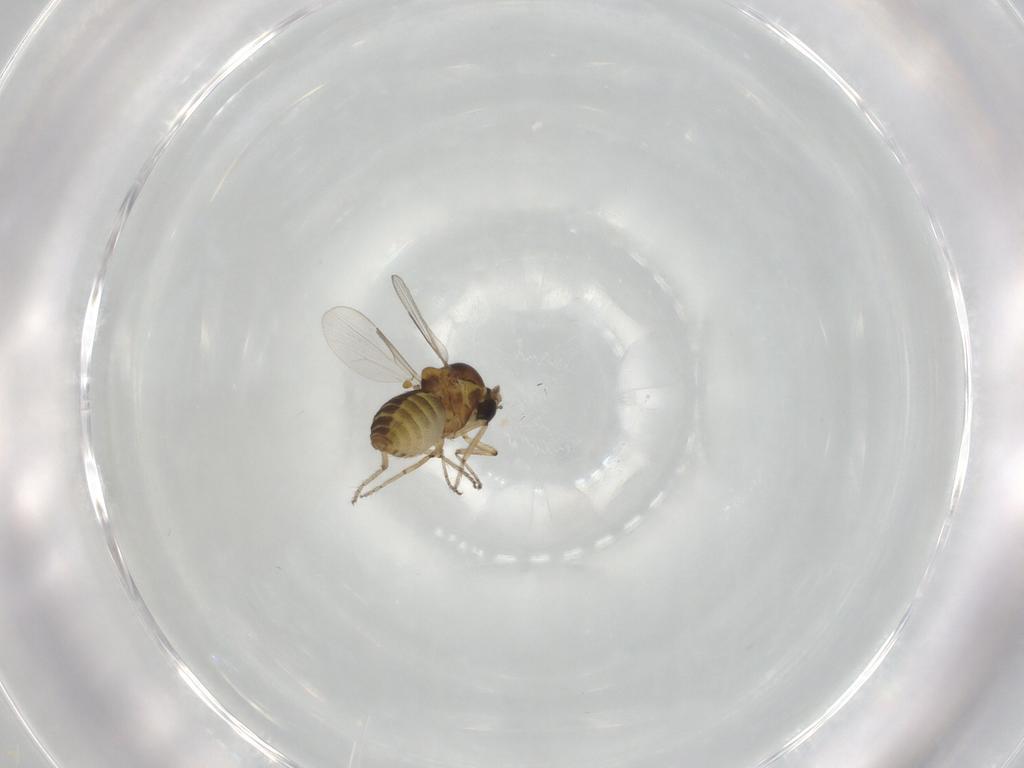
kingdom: Animalia
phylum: Arthropoda
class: Insecta
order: Diptera
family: Ceratopogonidae
